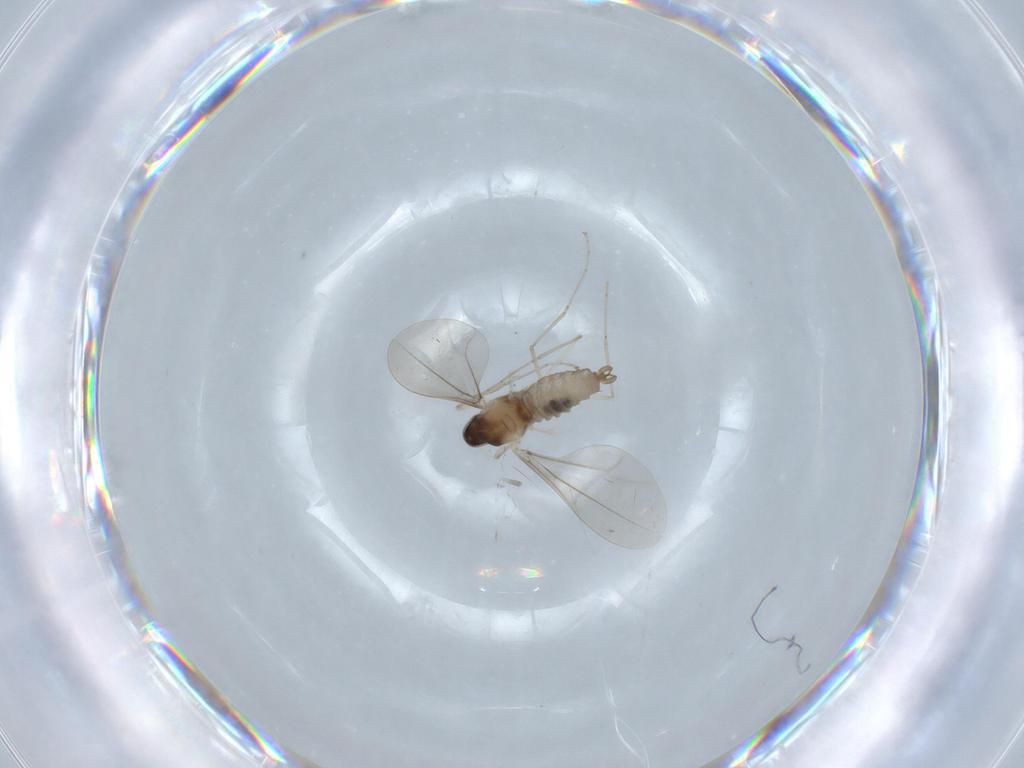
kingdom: Animalia
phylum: Arthropoda
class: Insecta
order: Diptera
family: Cecidomyiidae
